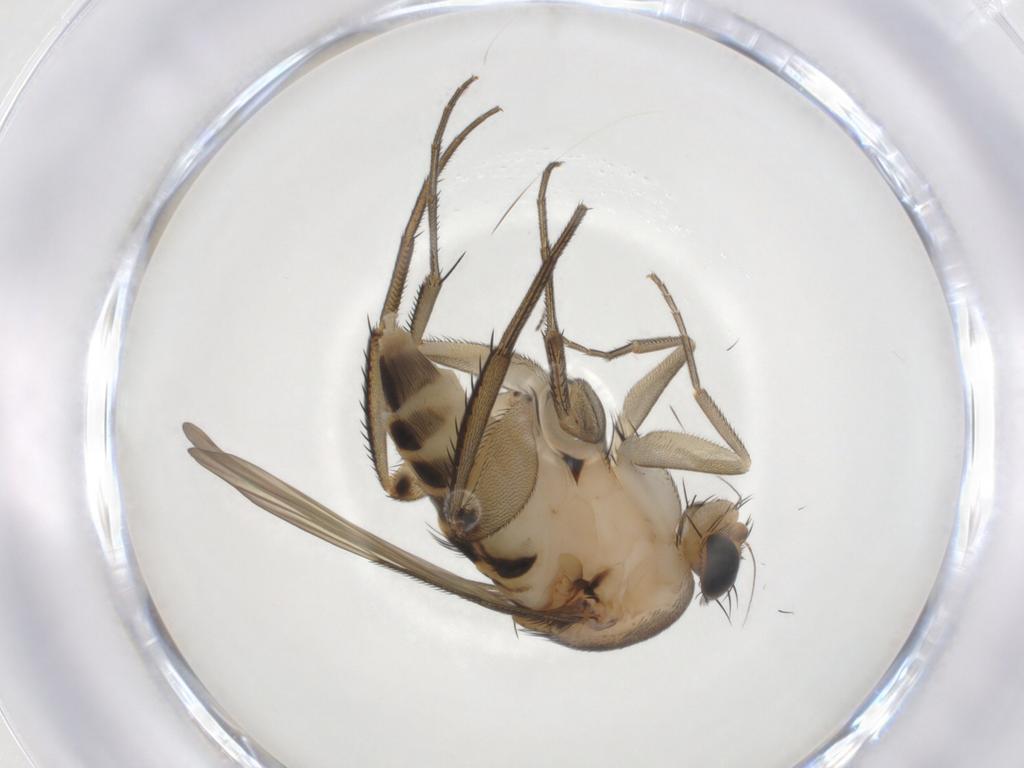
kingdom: Animalia
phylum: Arthropoda
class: Insecta
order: Diptera
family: Phoridae
